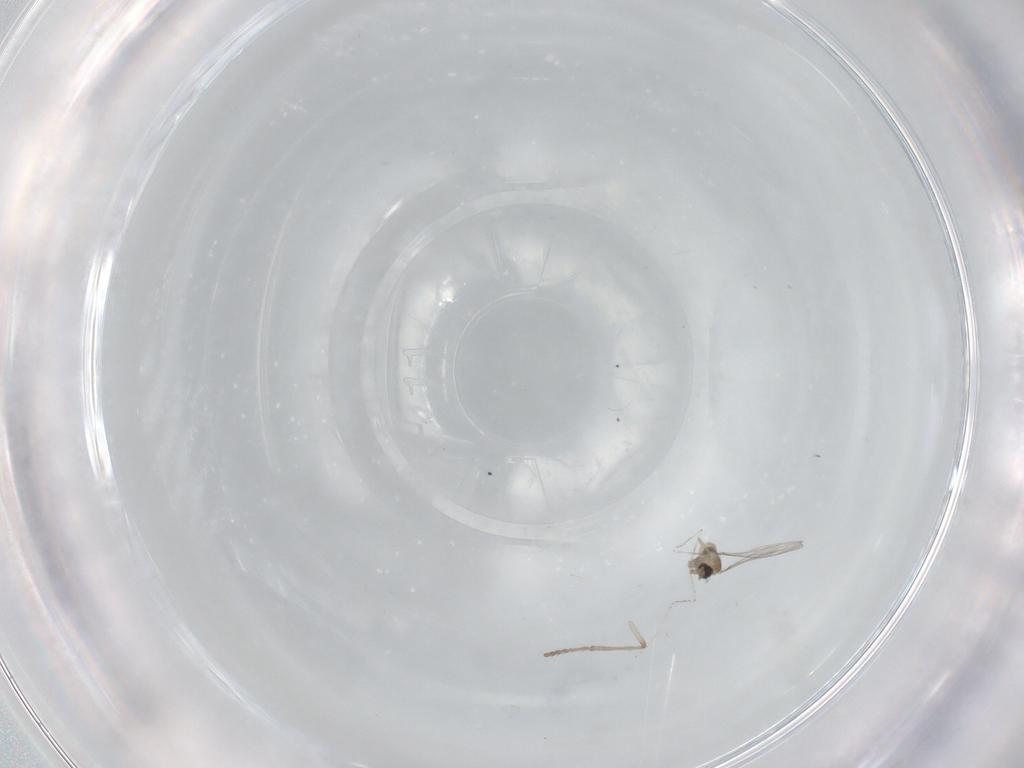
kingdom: Animalia
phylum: Arthropoda
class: Insecta
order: Diptera
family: Cecidomyiidae
